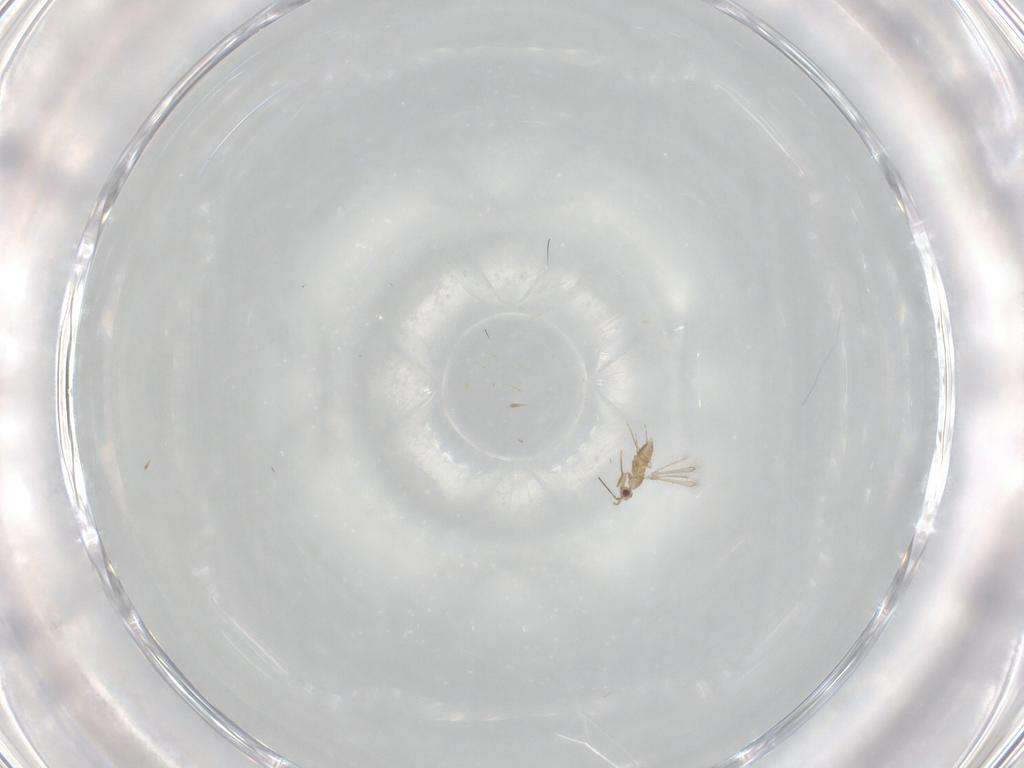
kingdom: Animalia
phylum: Arthropoda
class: Insecta
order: Hymenoptera
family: Mymaridae
